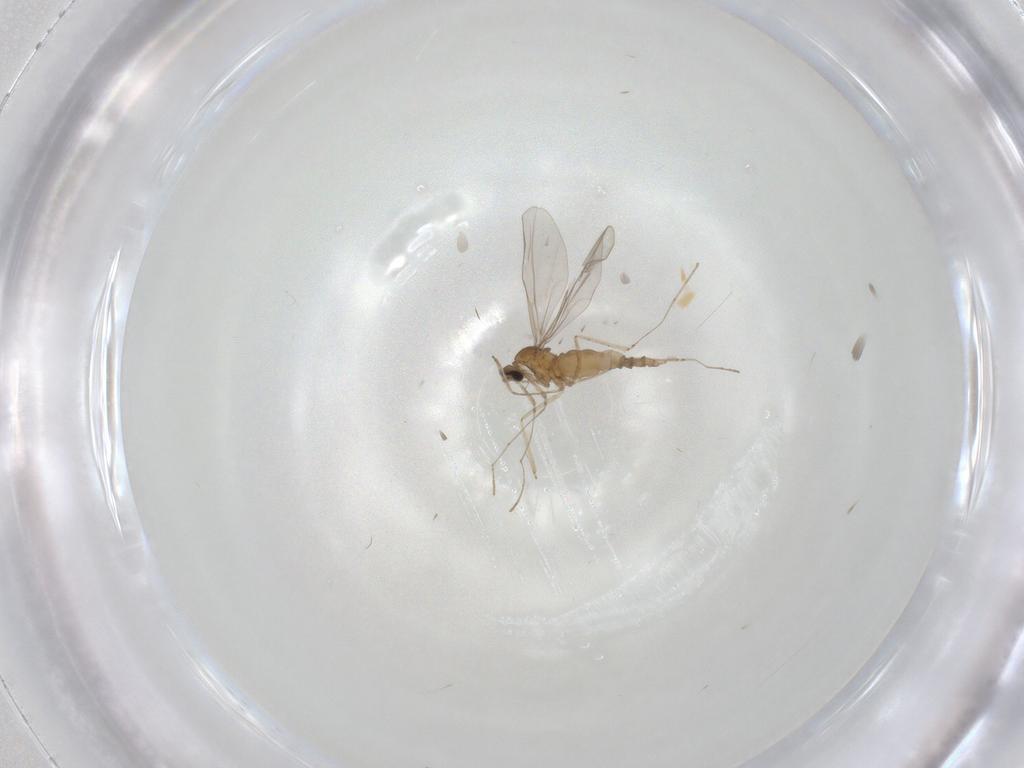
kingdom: Animalia
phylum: Arthropoda
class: Insecta
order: Diptera
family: Cecidomyiidae
